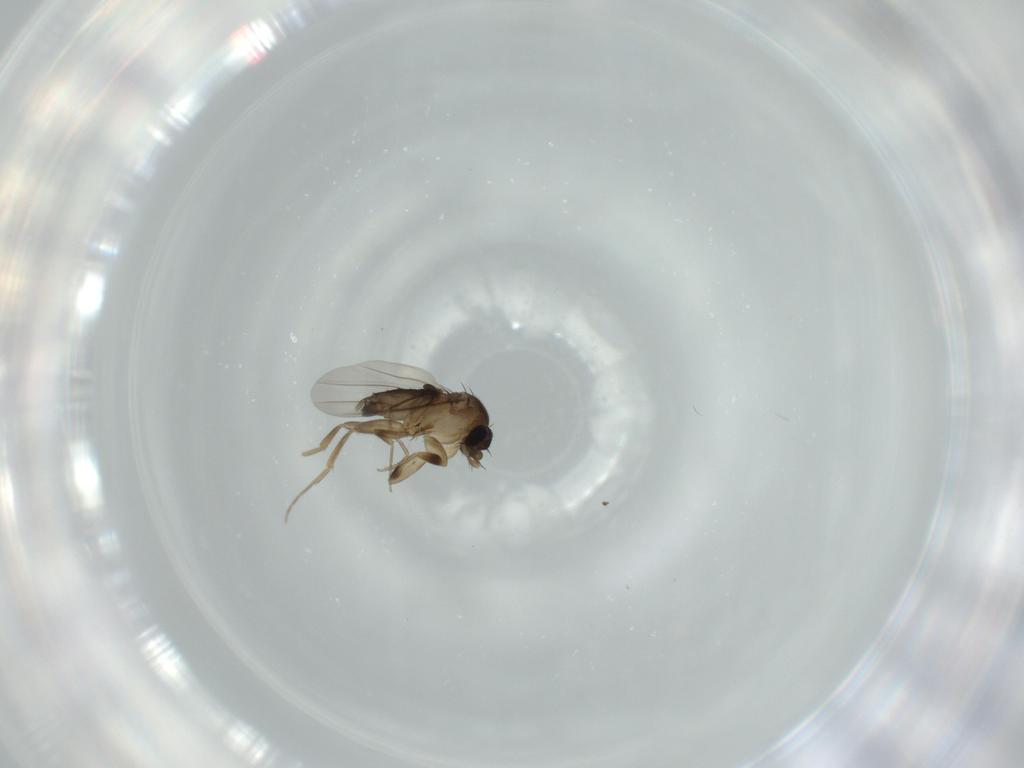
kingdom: Animalia
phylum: Arthropoda
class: Insecta
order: Diptera
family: Phoridae
